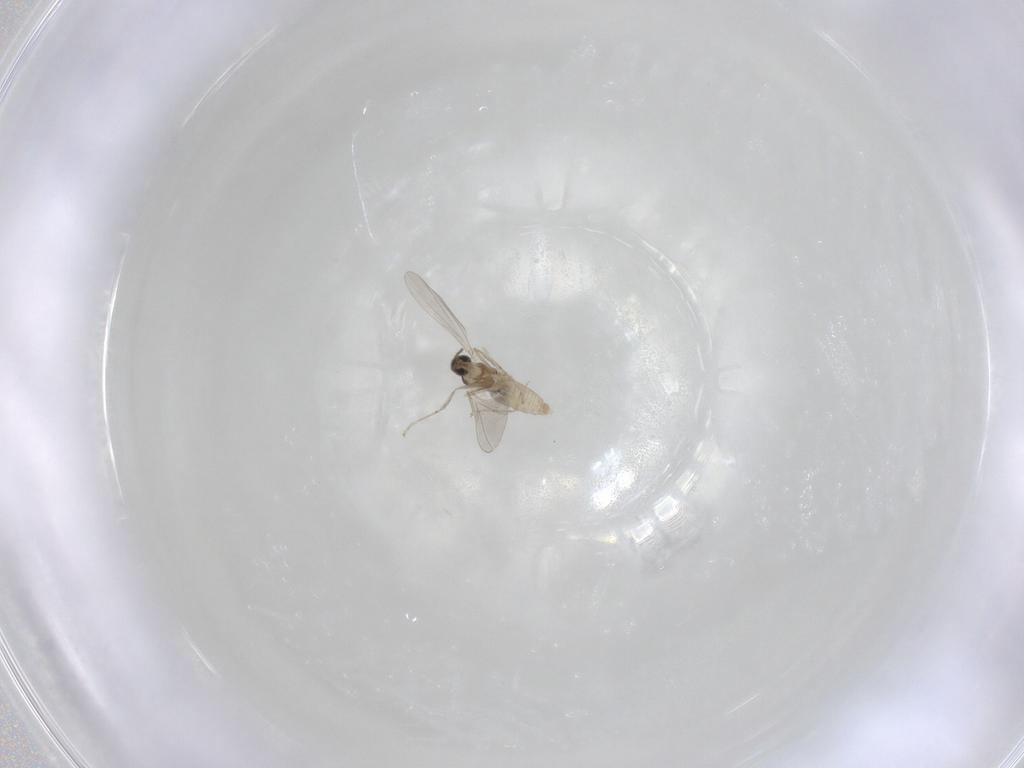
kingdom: Animalia
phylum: Arthropoda
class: Insecta
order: Diptera
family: Cecidomyiidae
